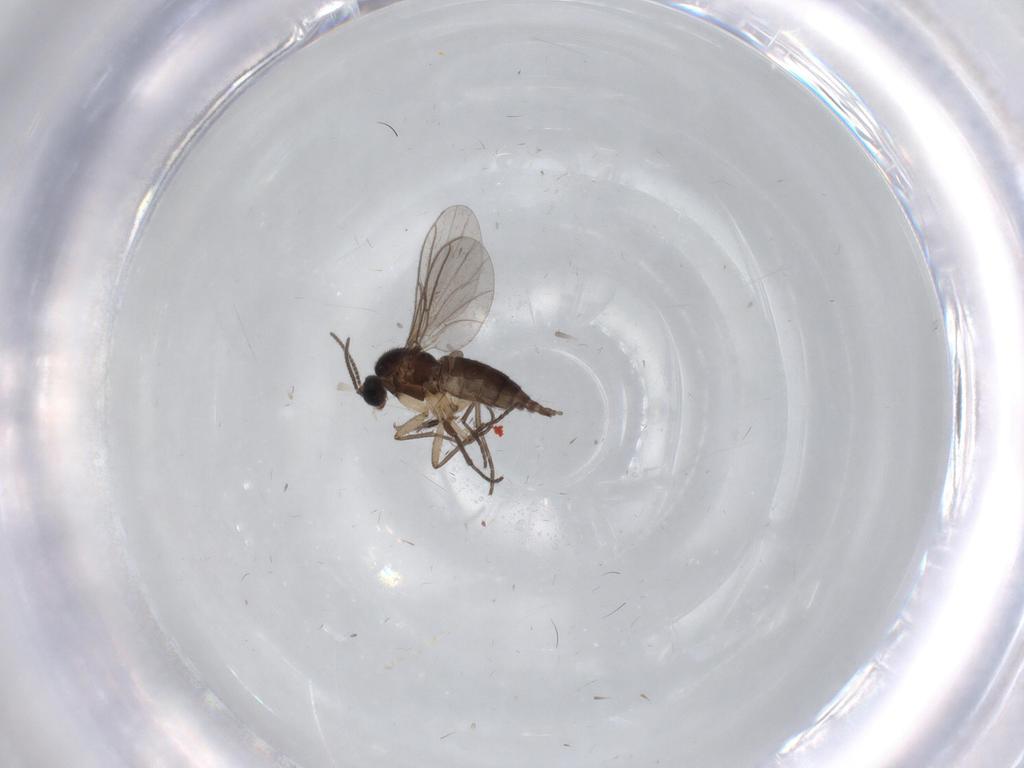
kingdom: Animalia
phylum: Arthropoda
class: Insecta
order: Diptera
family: Sciaridae
